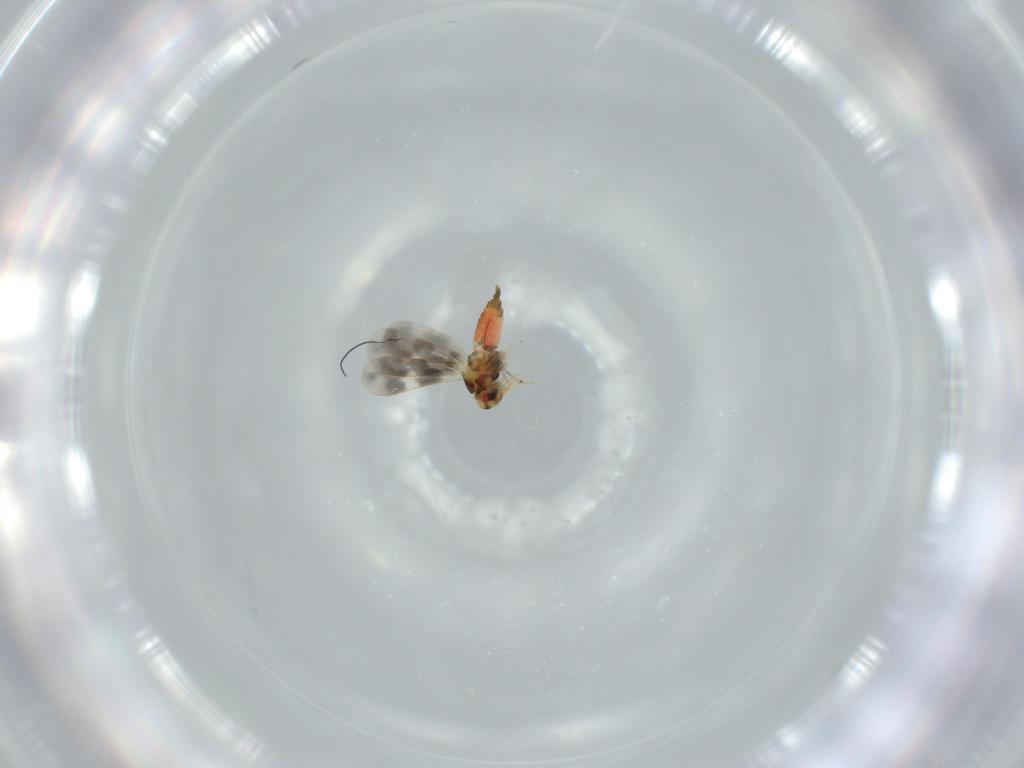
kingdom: Animalia
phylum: Arthropoda
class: Insecta
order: Hemiptera
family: Aleyrodidae
